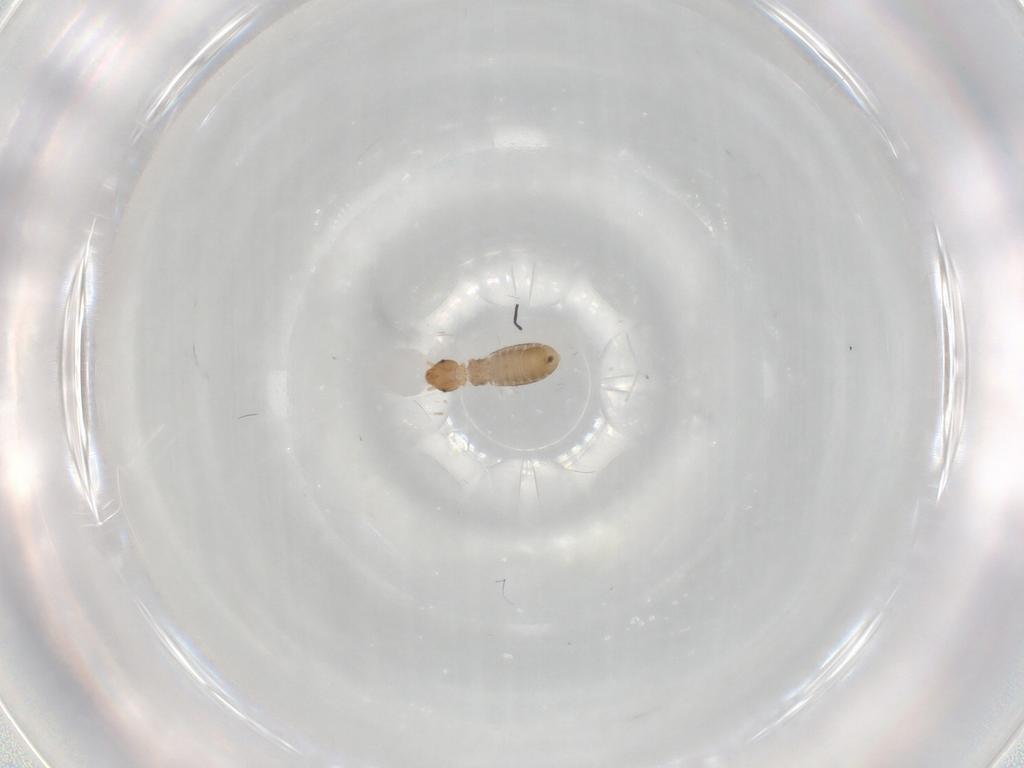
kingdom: Animalia
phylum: Arthropoda
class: Insecta
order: Psocodea
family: Liposcelididae
